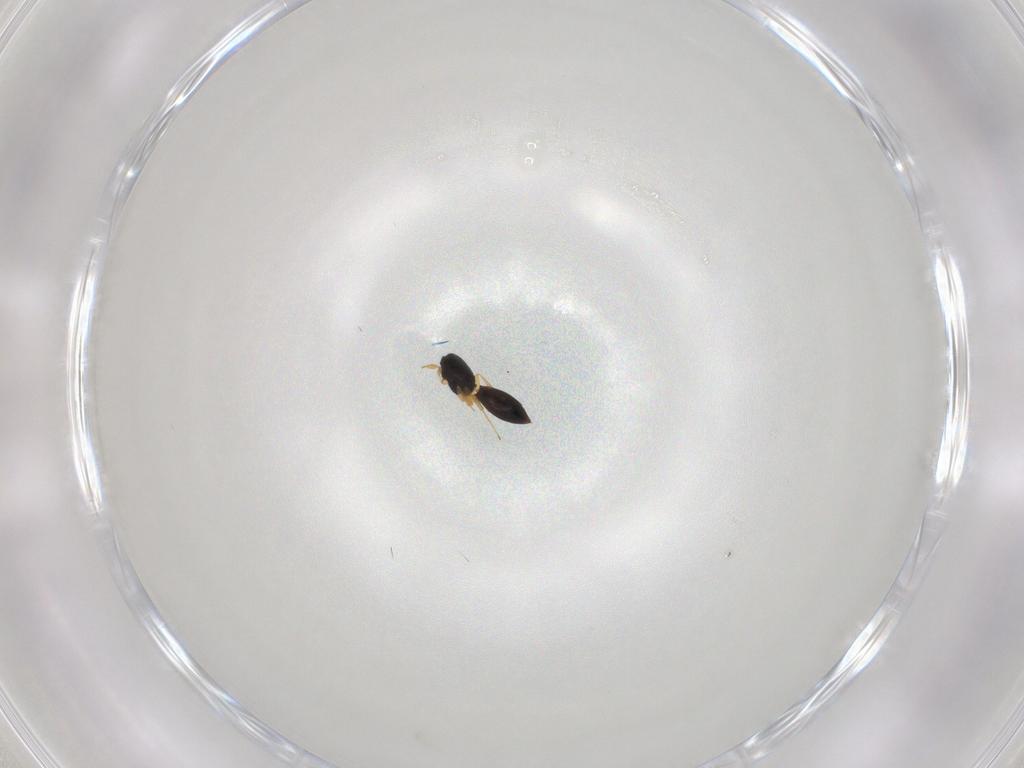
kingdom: Animalia
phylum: Arthropoda
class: Insecta
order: Hymenoptera
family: Scelionidae
